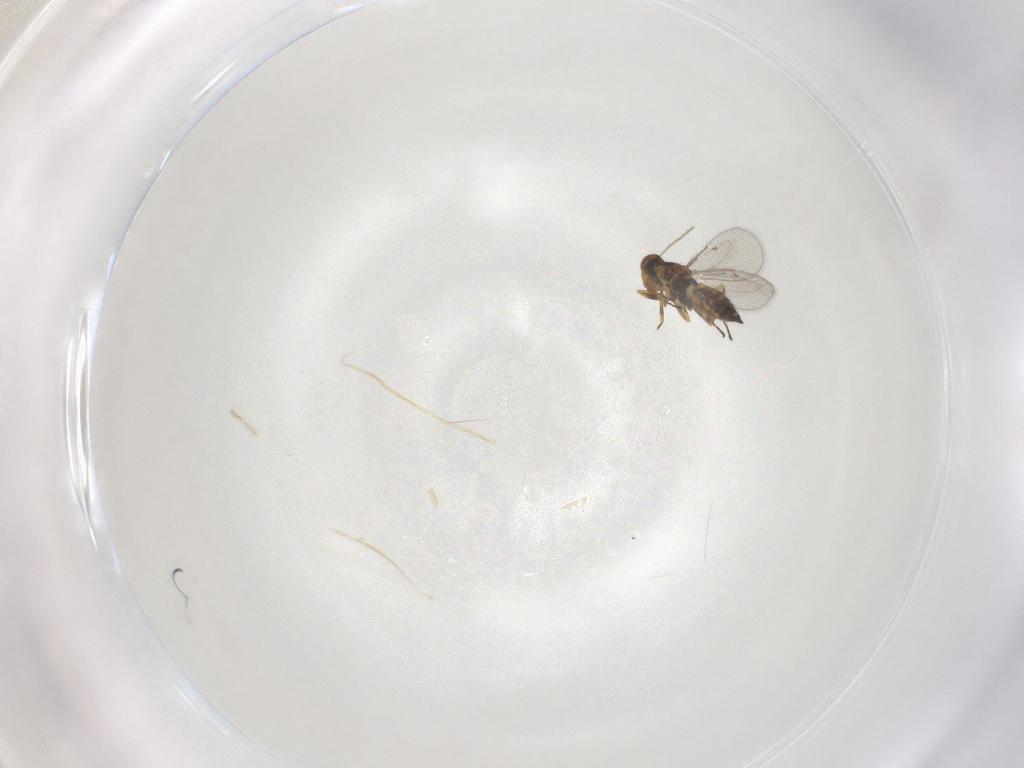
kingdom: Animalia
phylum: Arthropoda
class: Insecta
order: Hymenoptera
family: Eulophidae
